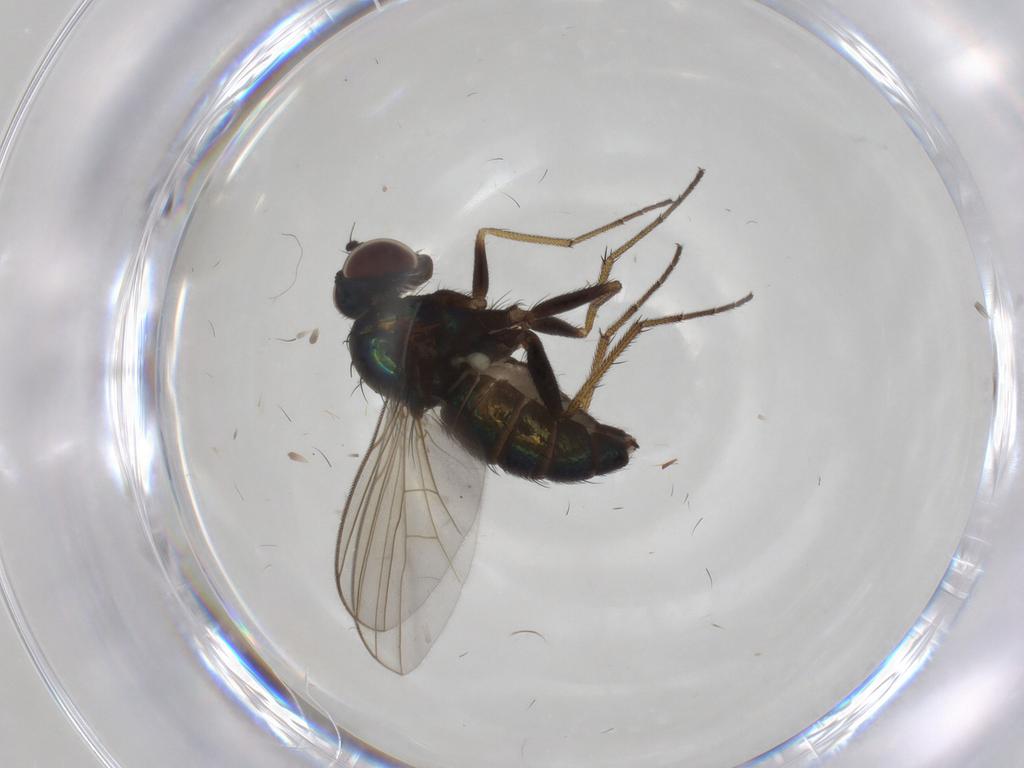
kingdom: Animalia
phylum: Arthropoda
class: Insecta
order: Diptera
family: Dolichopodidae
